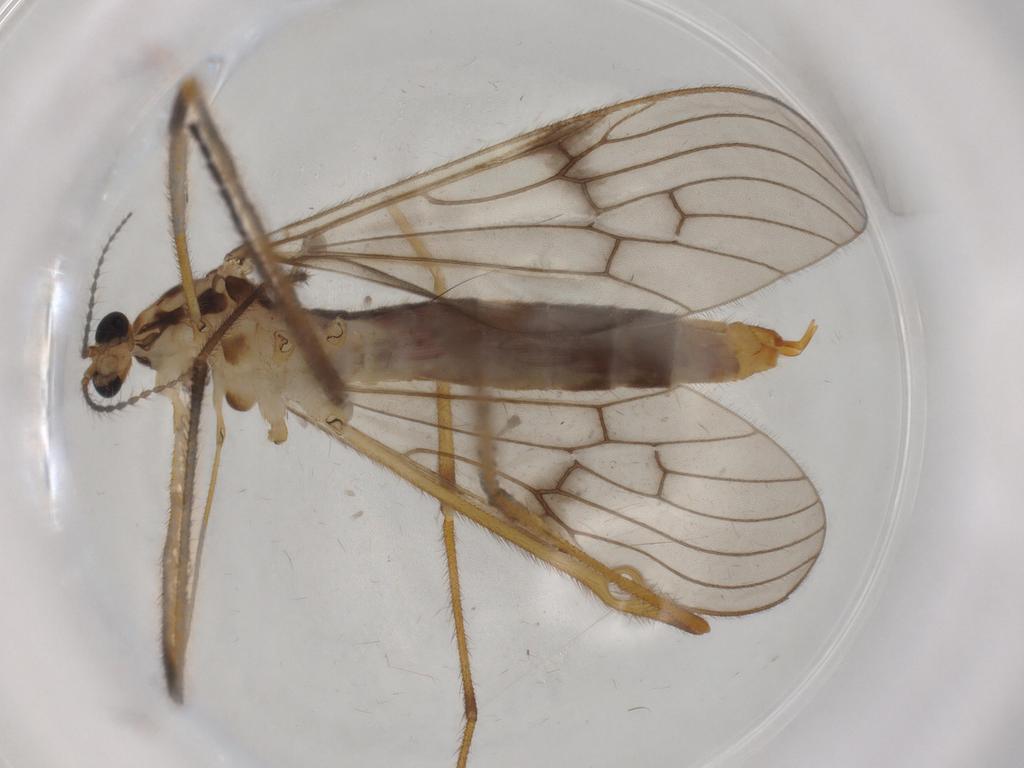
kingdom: Animalia
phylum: Arthropoda
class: Insecta
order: Diptera
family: Limoniidae
